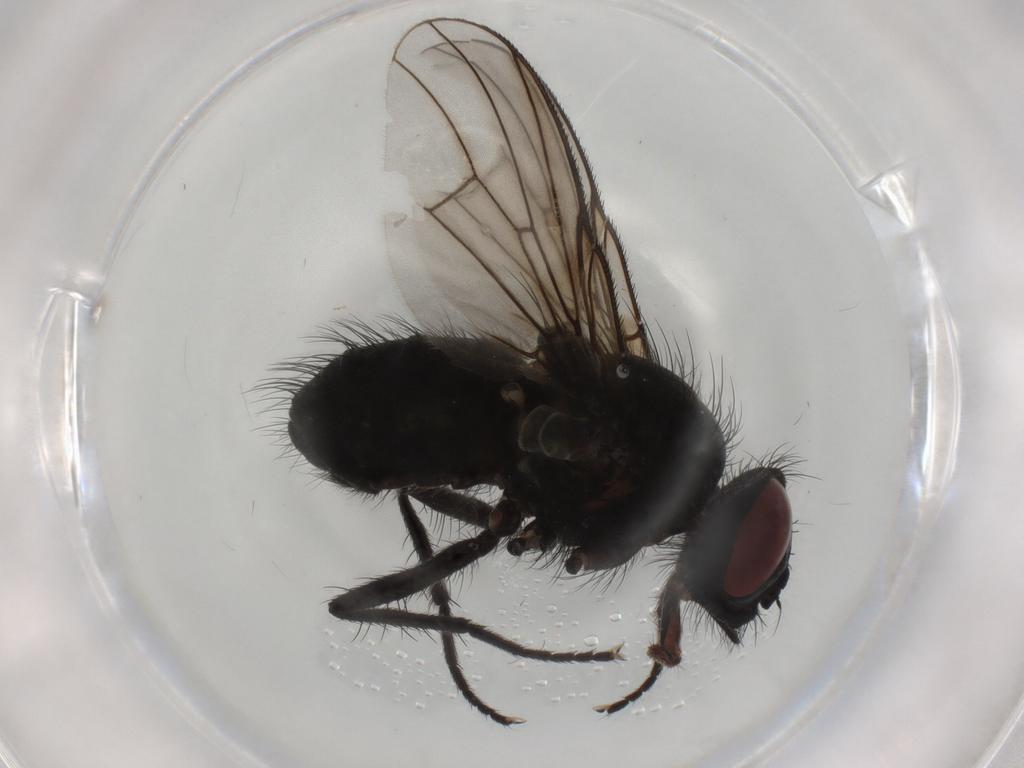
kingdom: Animalia
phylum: Arthropoda
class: Insecta
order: Diptera
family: Muscidae
